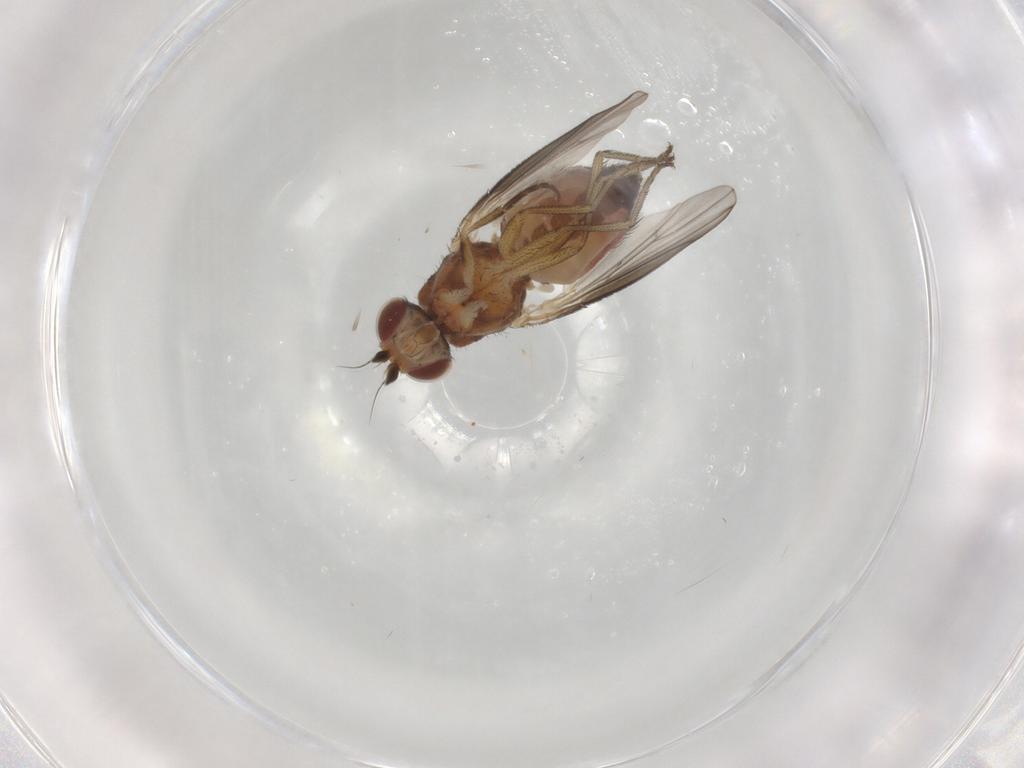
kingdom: Animalia
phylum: Arthropoda
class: Insecta
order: Diptera
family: Heleomyzidae
